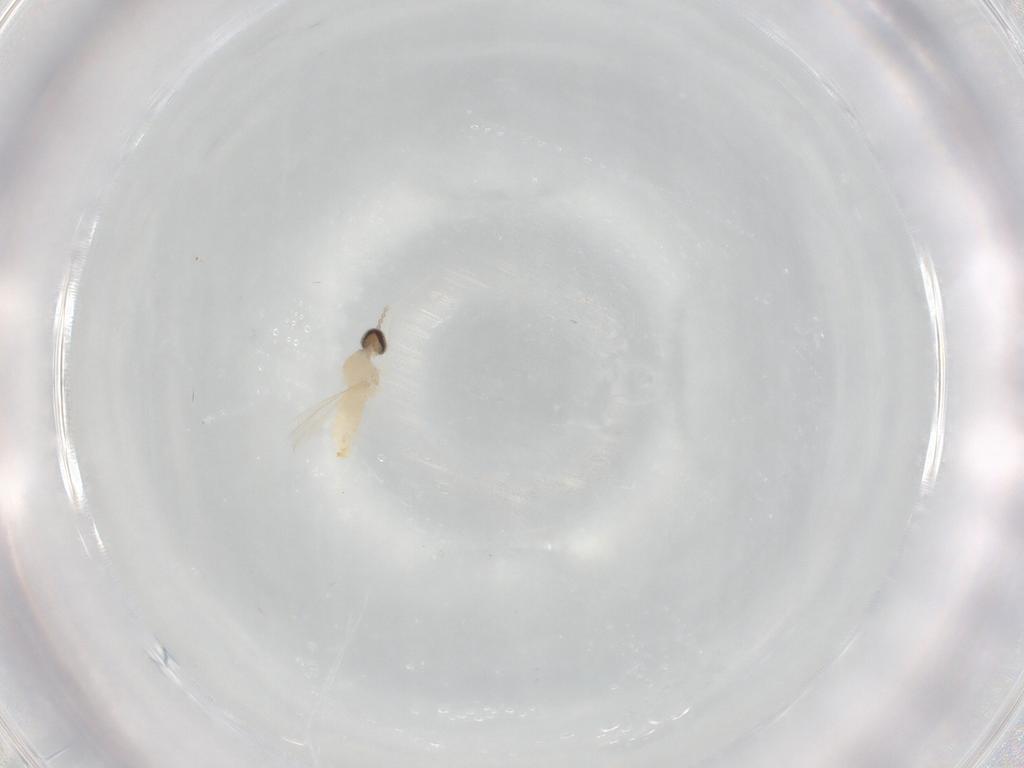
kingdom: Animalia
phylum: Arthropoda
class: Insecta
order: Diptera
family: Cecidomyiidae
